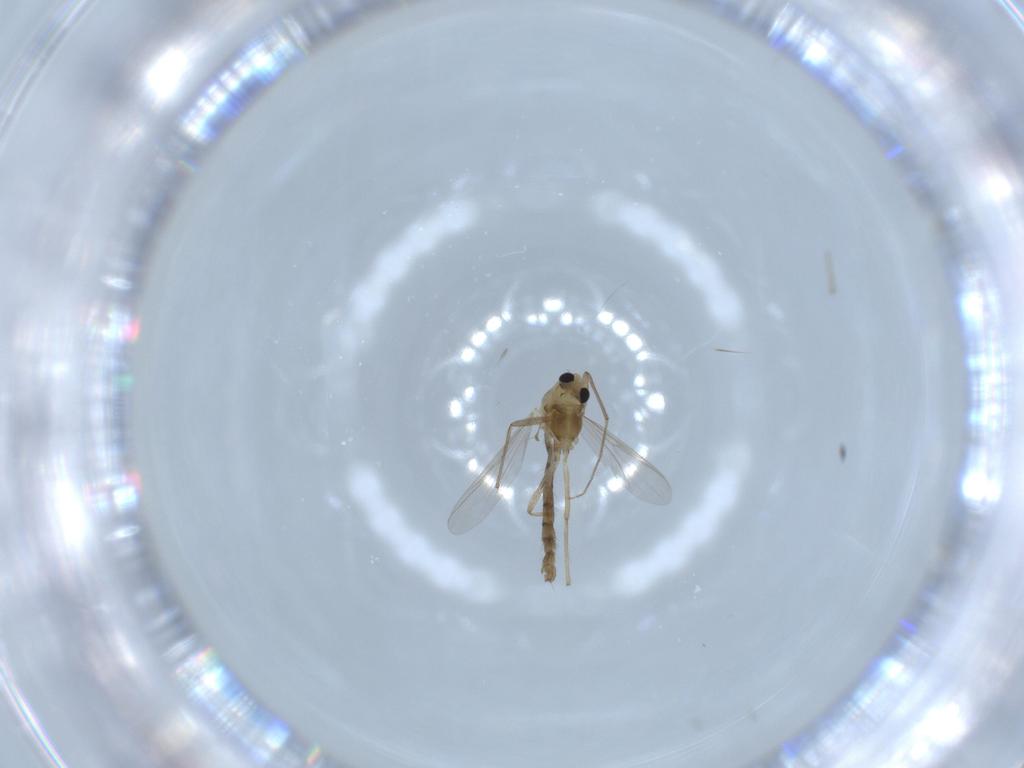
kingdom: Animalia
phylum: Arthropoda
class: Insecta
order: Diptera
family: Chironomidae
